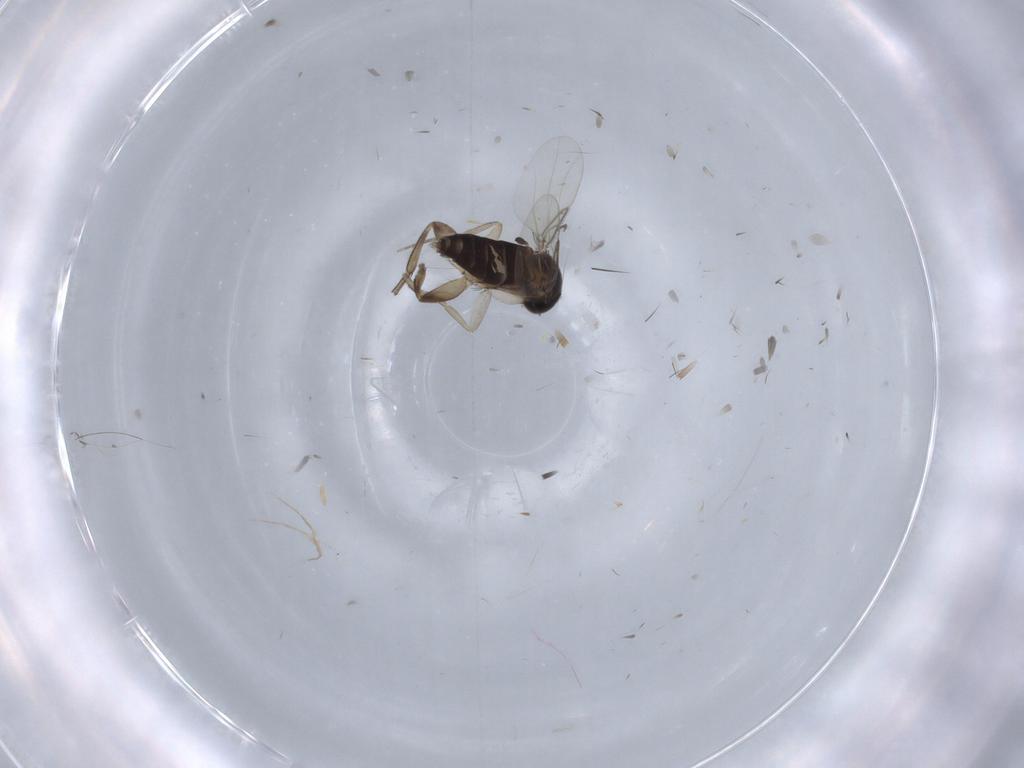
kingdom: Animalia
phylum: Arthropoda
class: Insecta
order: Diptera
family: Phoridae
